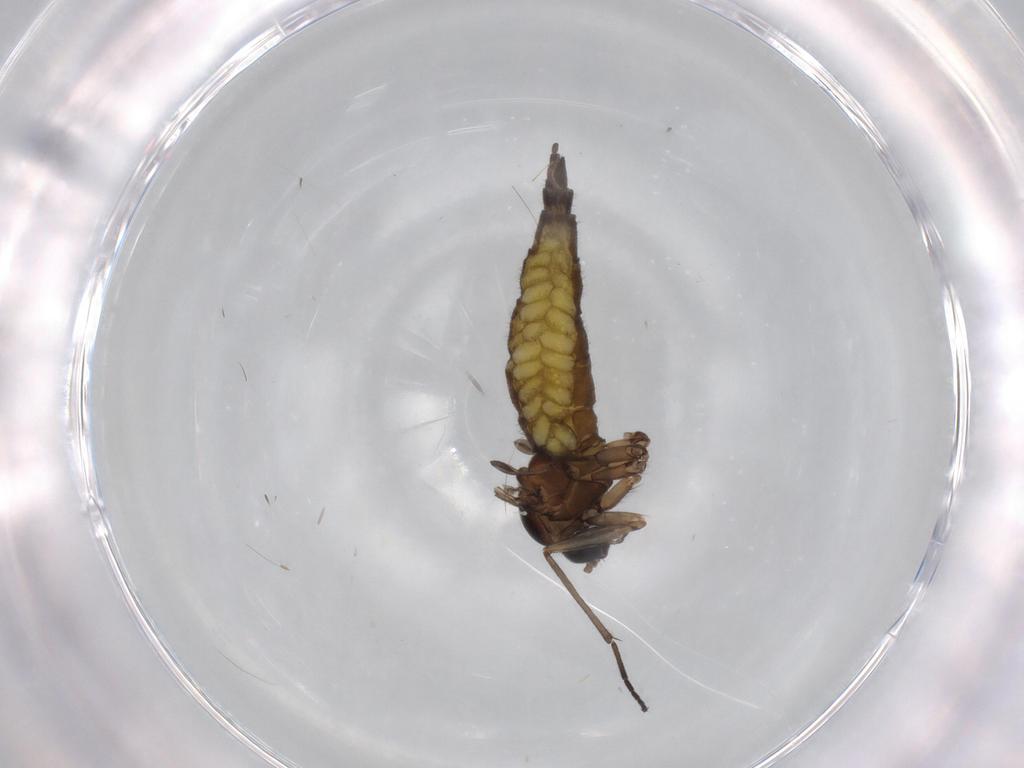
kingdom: Animalia
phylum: Arthropoda
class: Insecta
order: Diptera
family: Sciaridae
